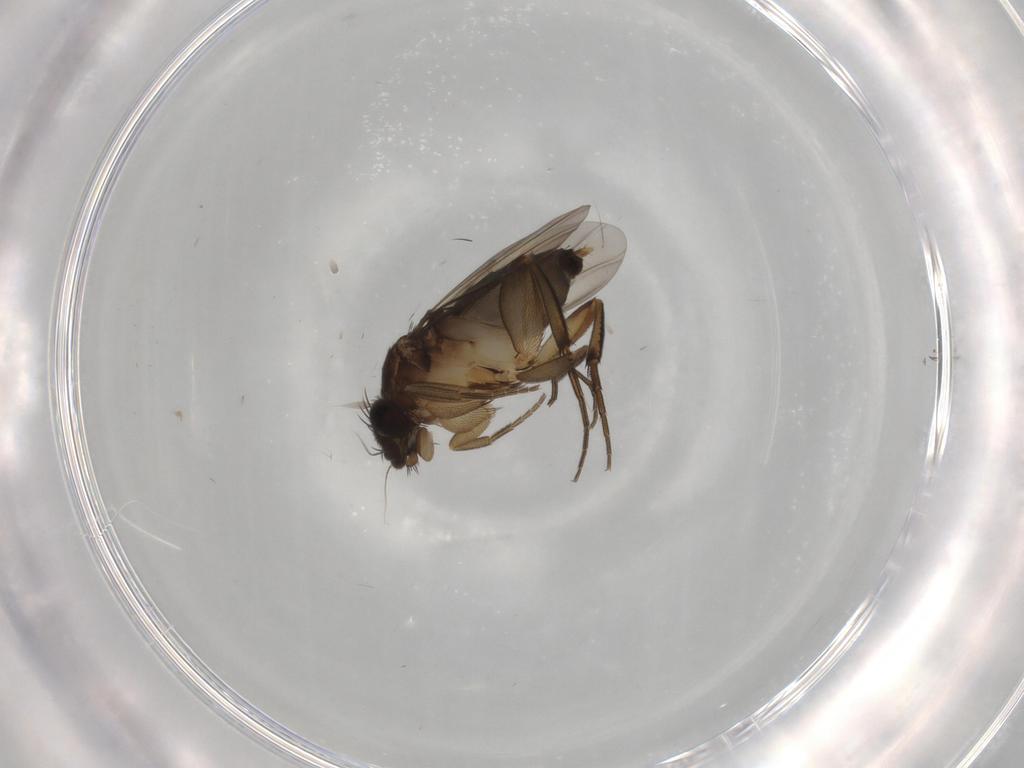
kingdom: Animalia
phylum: Arthropoda
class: Insecta
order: Diptera
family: Phoridae
